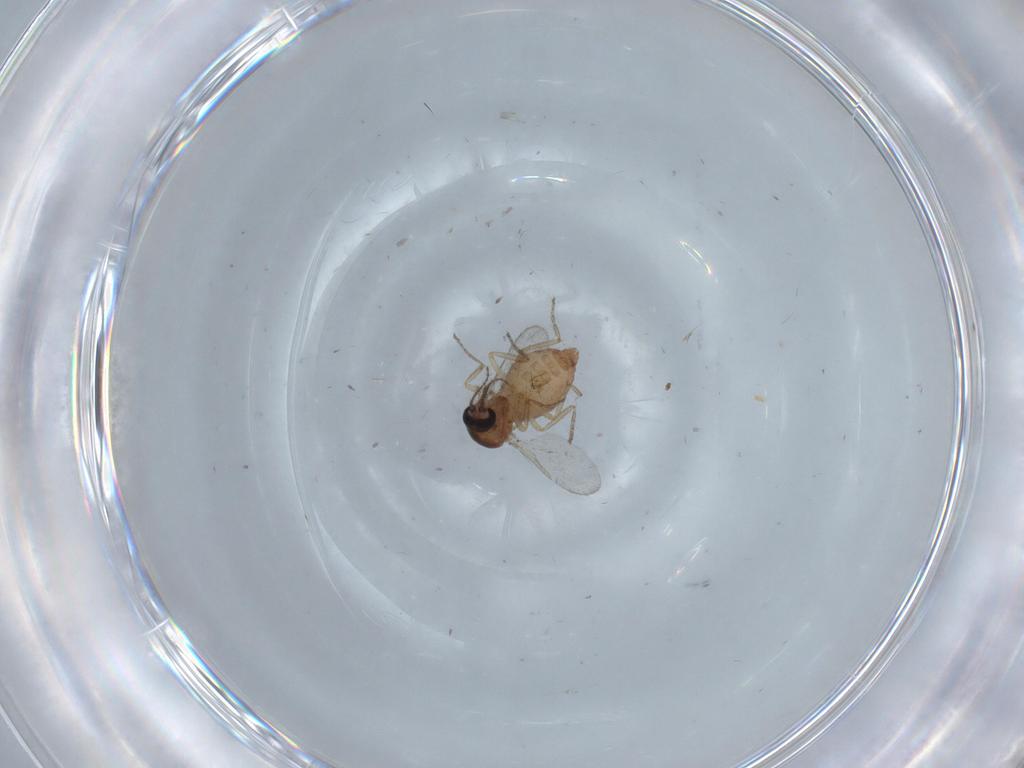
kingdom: Animalia
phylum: Arthropoda
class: Insecta
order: Diptera
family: Ceratopogonidae
